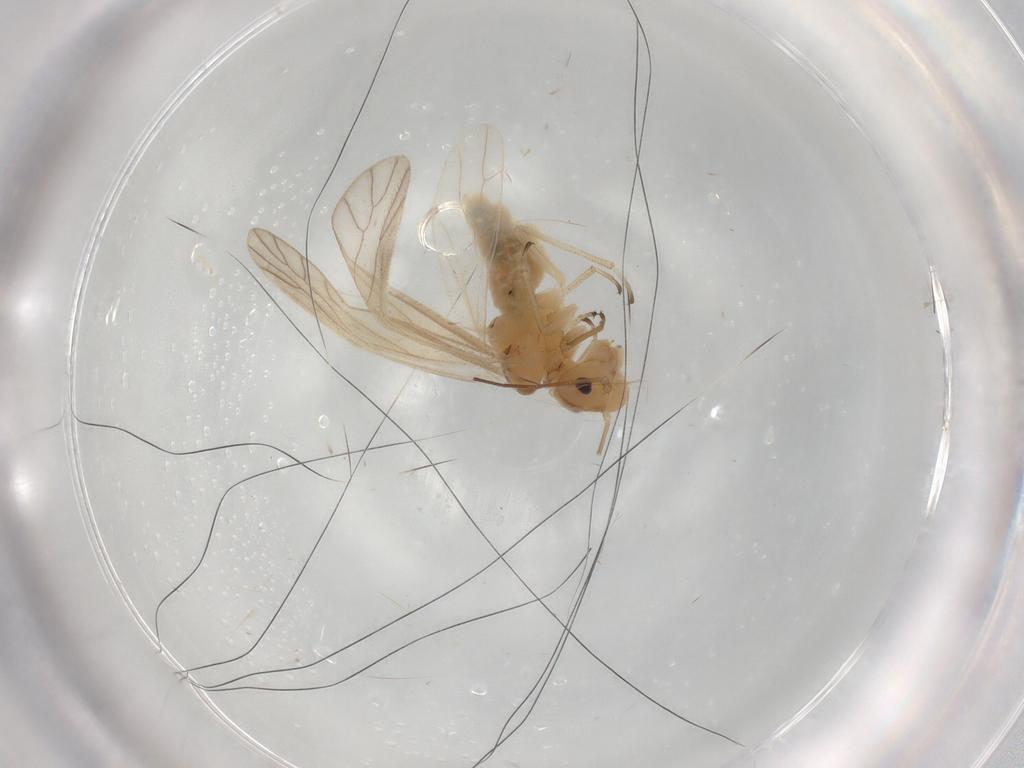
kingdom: Animalia
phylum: Arthropoda
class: Insecta
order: Psocodea
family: Caeciliusidae
